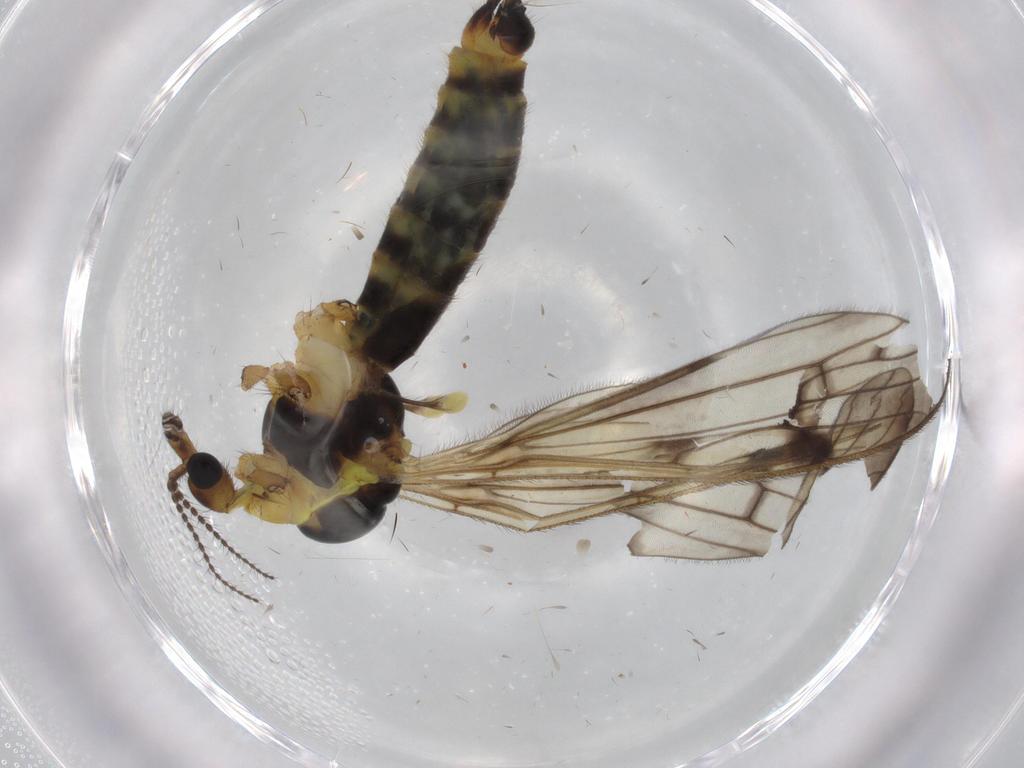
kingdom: Animalia
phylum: Arthropoda
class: Insecta
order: Diptera
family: Limoniidae
